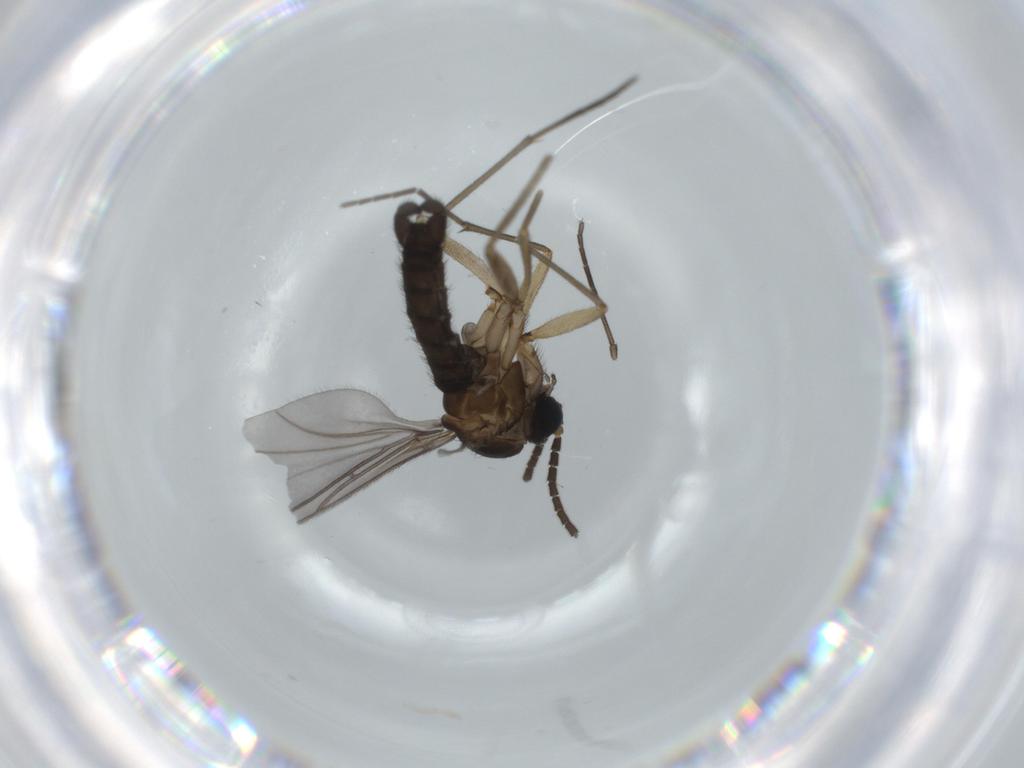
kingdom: Animalia
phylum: Arthropoda
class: Insecta
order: Diptera
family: Sciaridae
